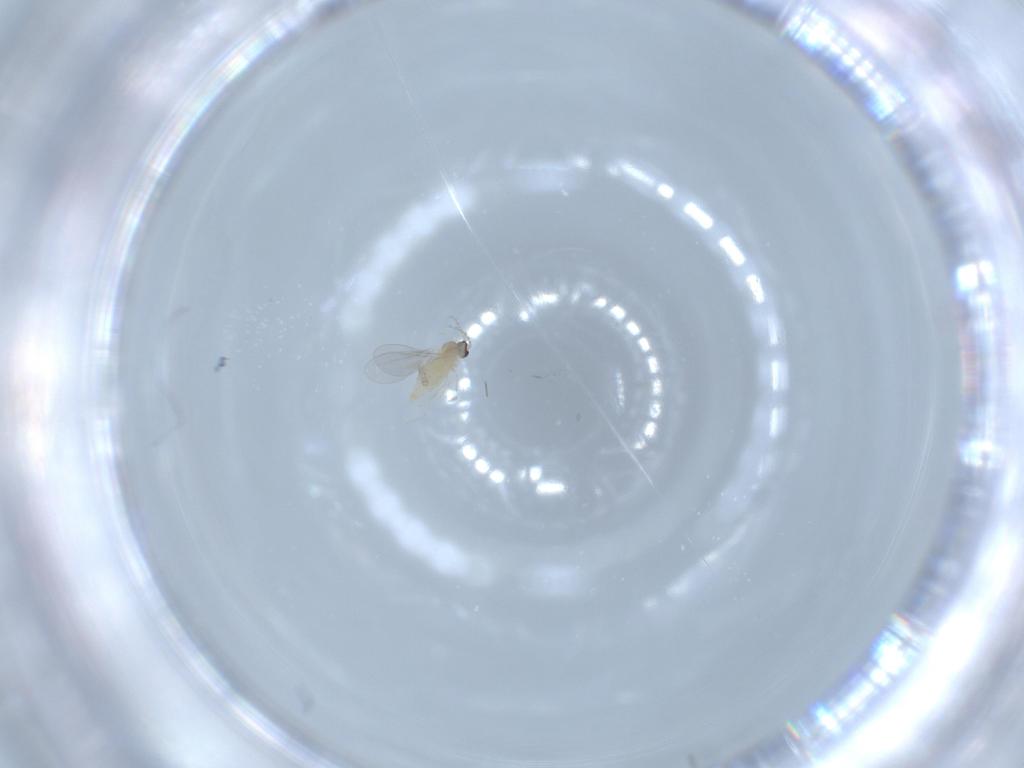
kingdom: Animalia
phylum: Arthropoda
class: Insecta
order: Diptera
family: Cecidomyiidae
